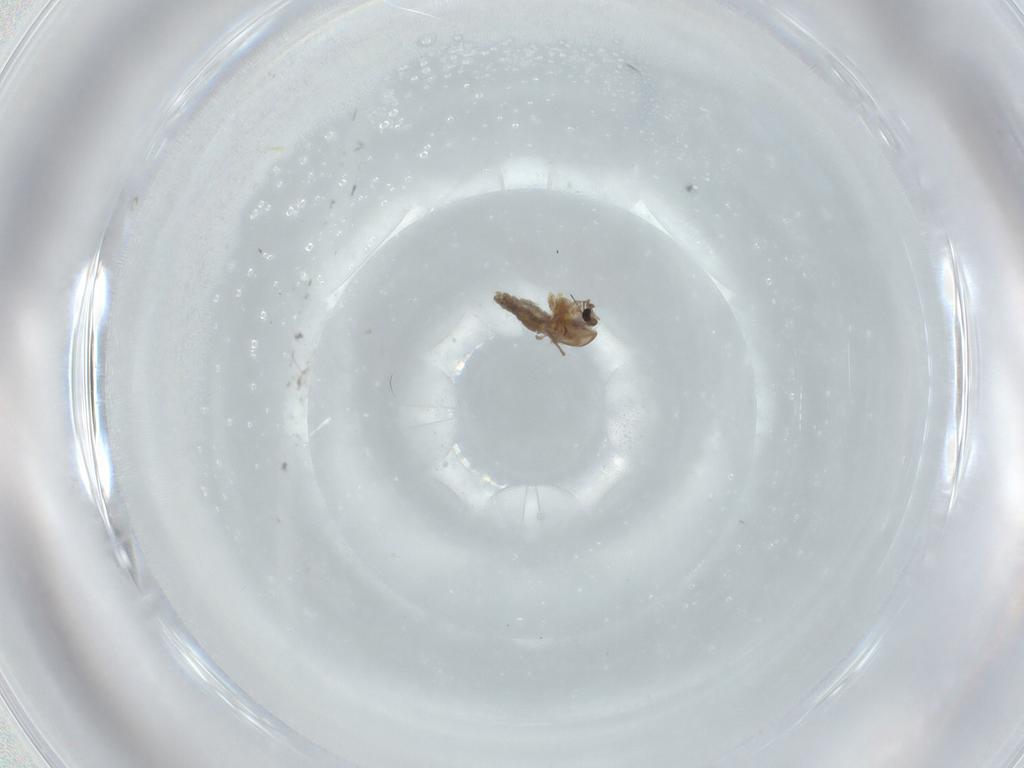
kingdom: Animalia
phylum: Arthropoda
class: Insecta
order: Diptera
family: Chironomidae
